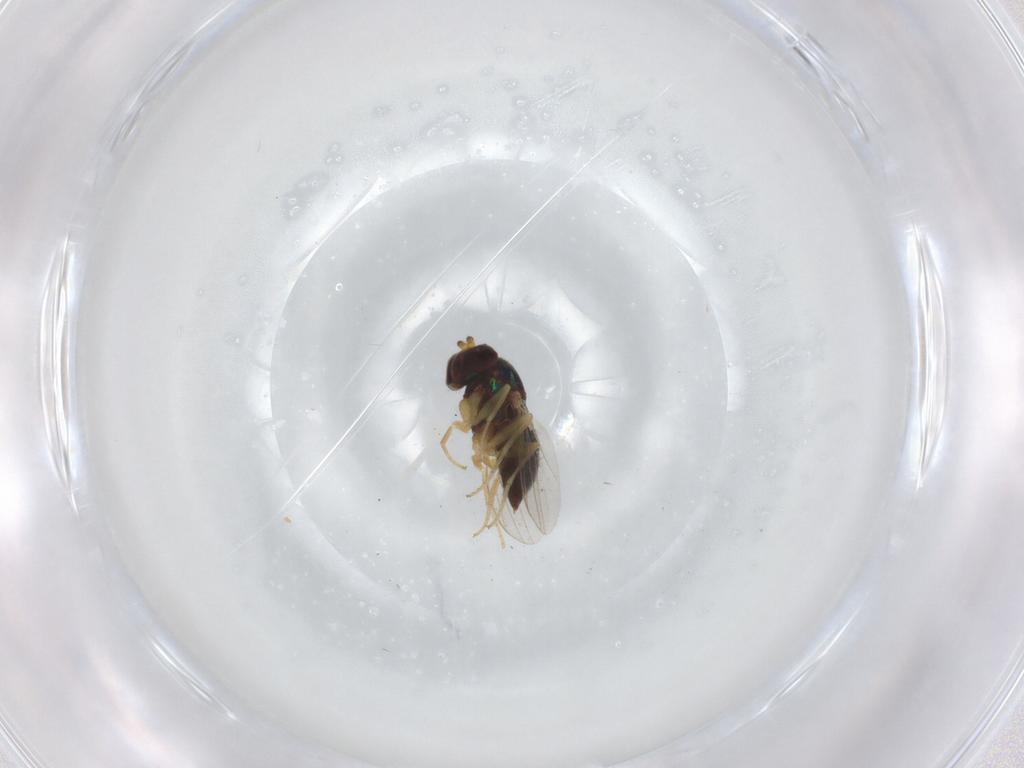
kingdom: Animalia
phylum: Arthropoda
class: Insecta
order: Diptera
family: Dolichopodidae
